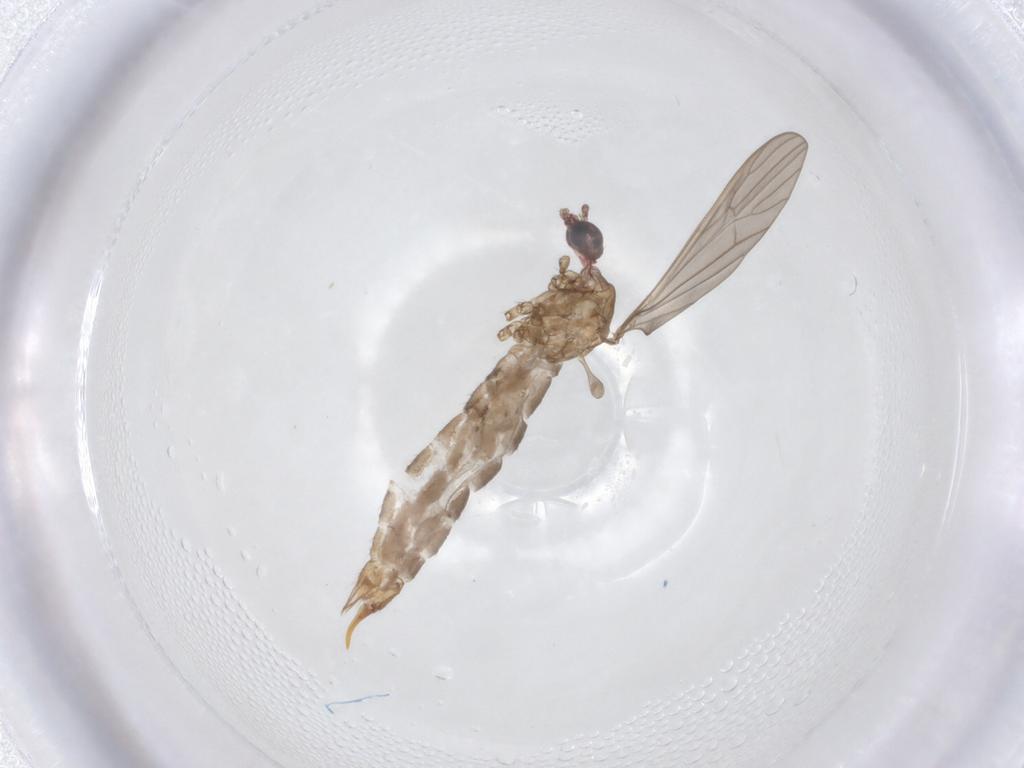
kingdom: Animalia
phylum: Arthropoda
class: Insecta
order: Diptera
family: Limoniidae
